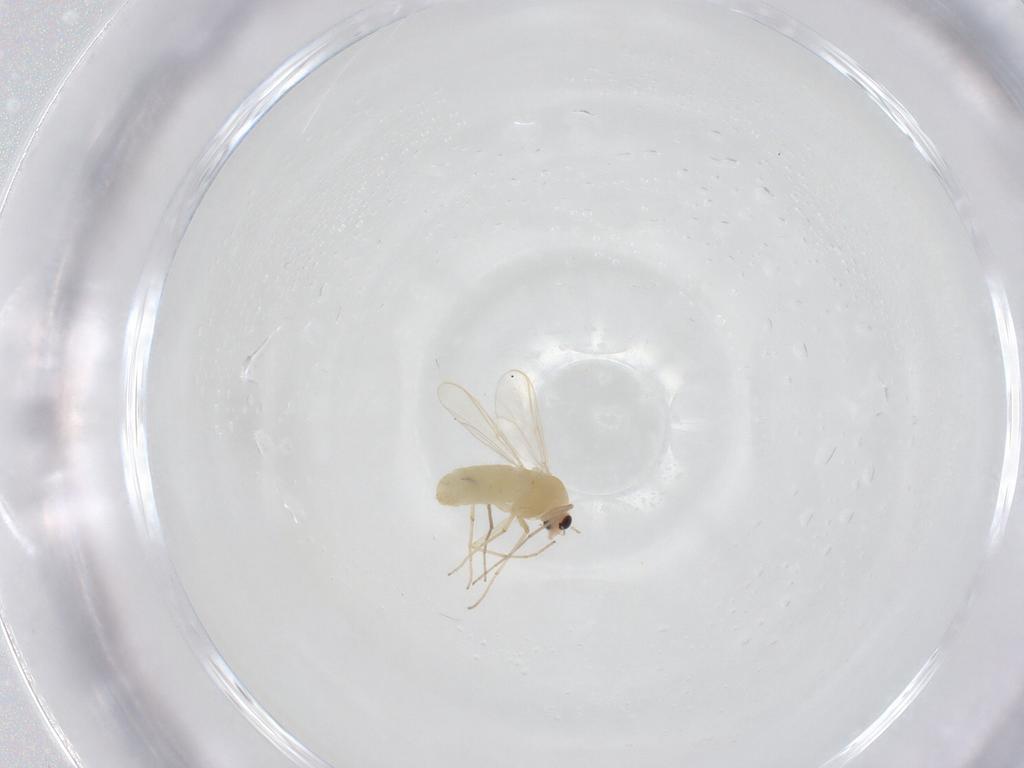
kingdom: Animalia
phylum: Arthropoda
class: Insecta
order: Diptera
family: Chironomidae
